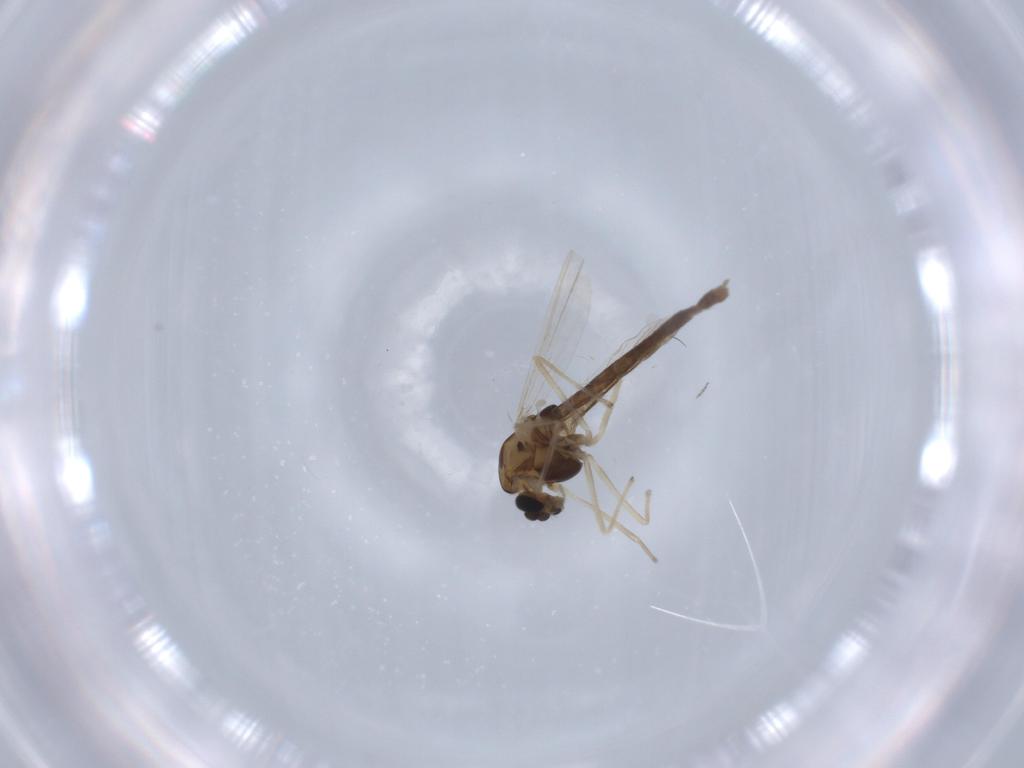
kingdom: Animalia
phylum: Arthropoda
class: Insecta
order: Diptera
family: Chironomidae
